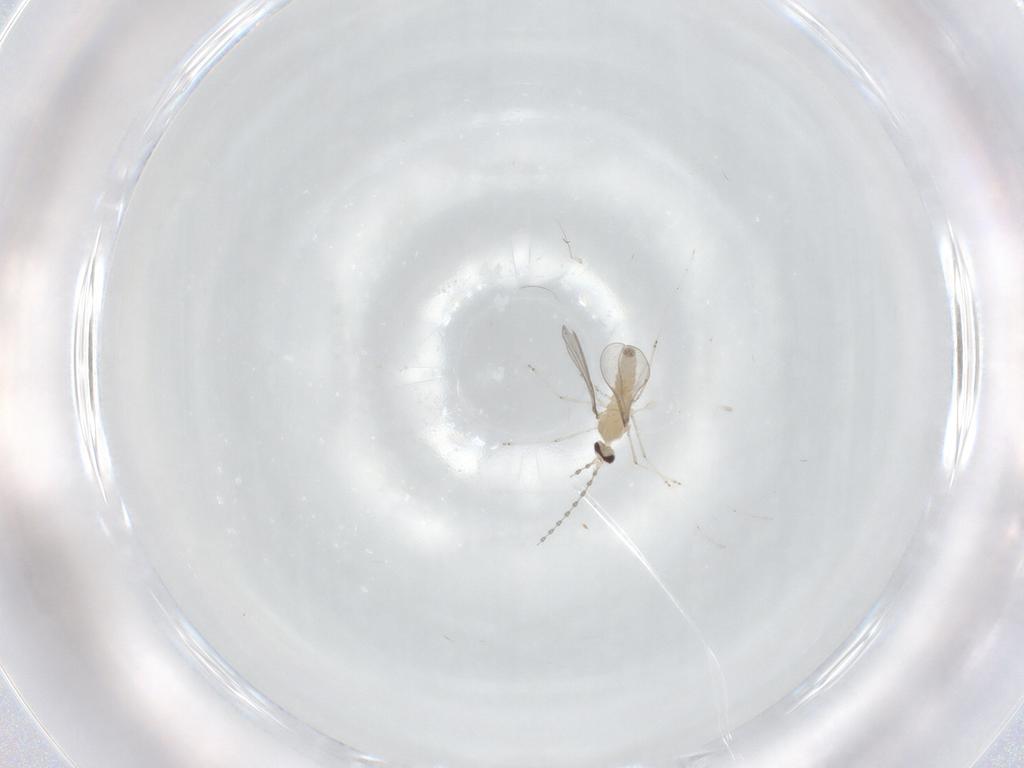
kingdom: Animalia
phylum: Arthropoda
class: Insecta
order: Diptera
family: Cecidomyiidae
